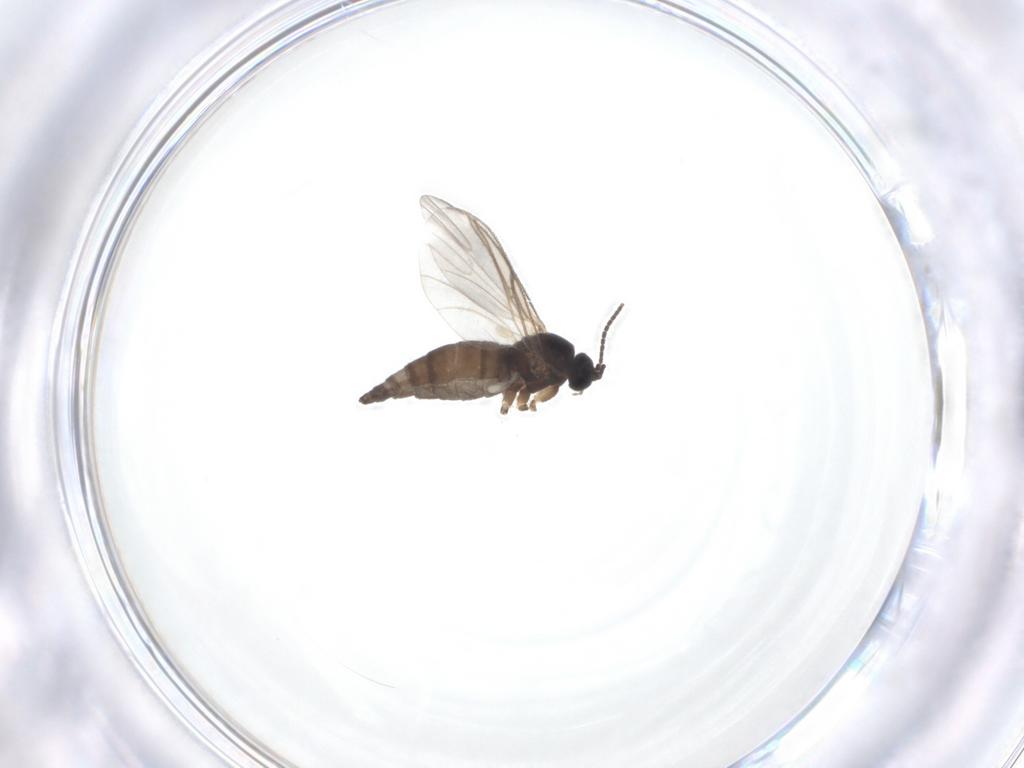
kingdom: Animalia
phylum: Arthropoda
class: Insecta
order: Diptera
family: Sciaridae
